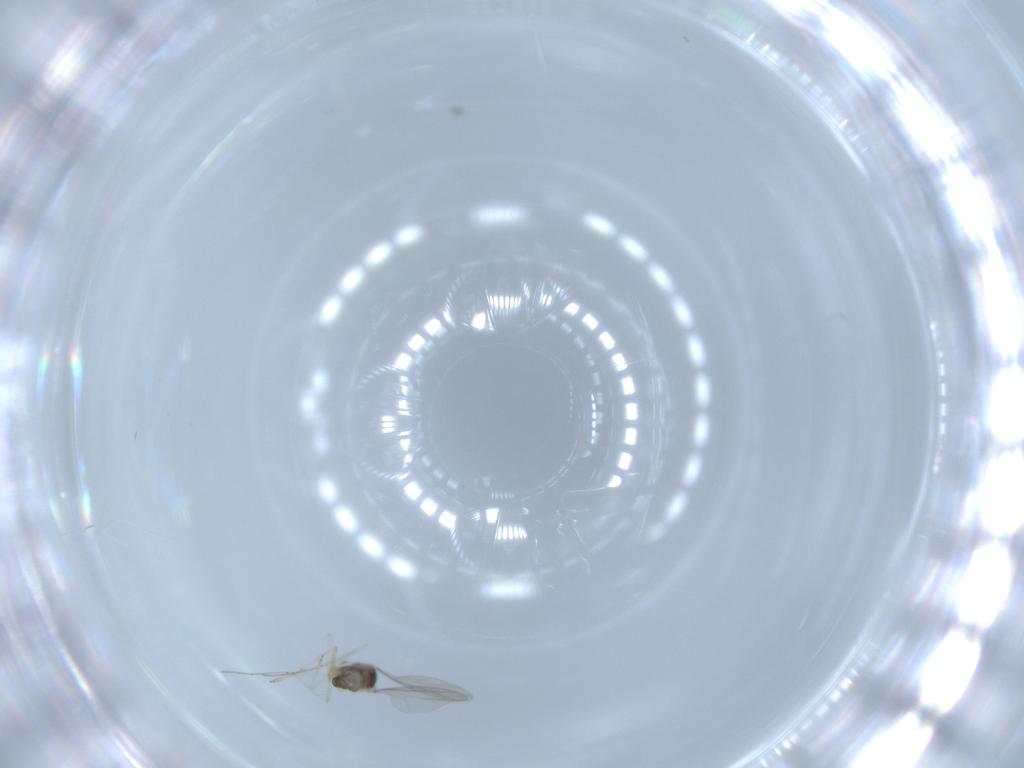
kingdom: Animalia
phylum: Arthropoda
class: Insecta
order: Diptera
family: Cecidomyiidae
